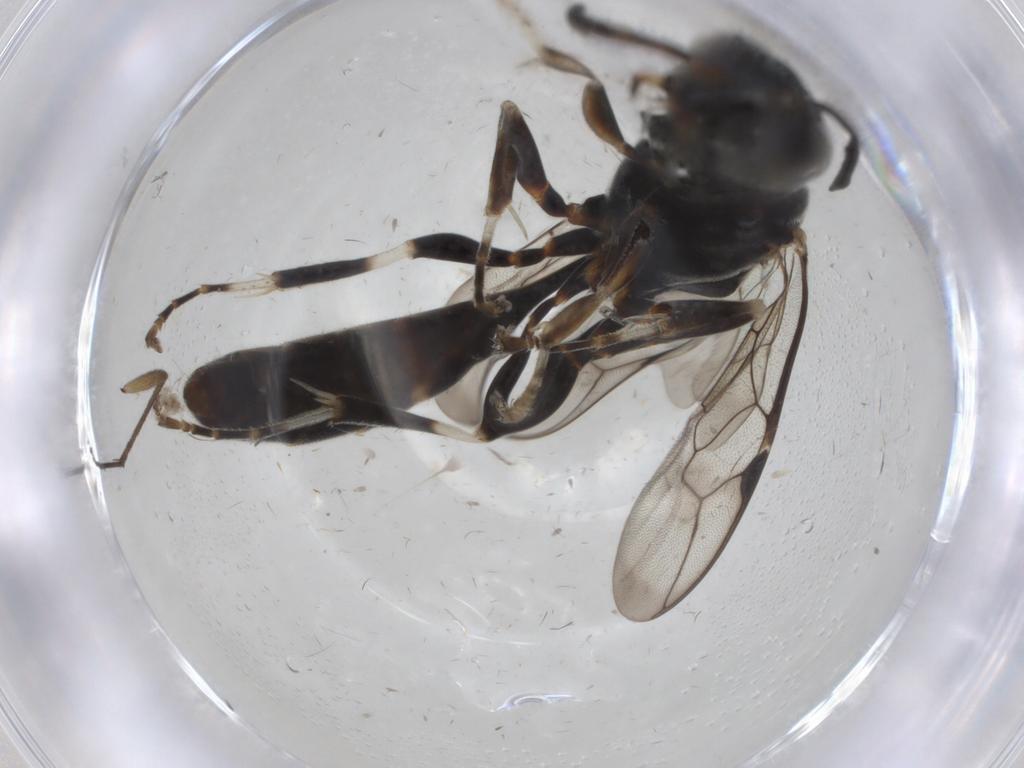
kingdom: Animalia
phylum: Arthropoda
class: Insecta
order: Hymenoptera
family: Crabronidae
